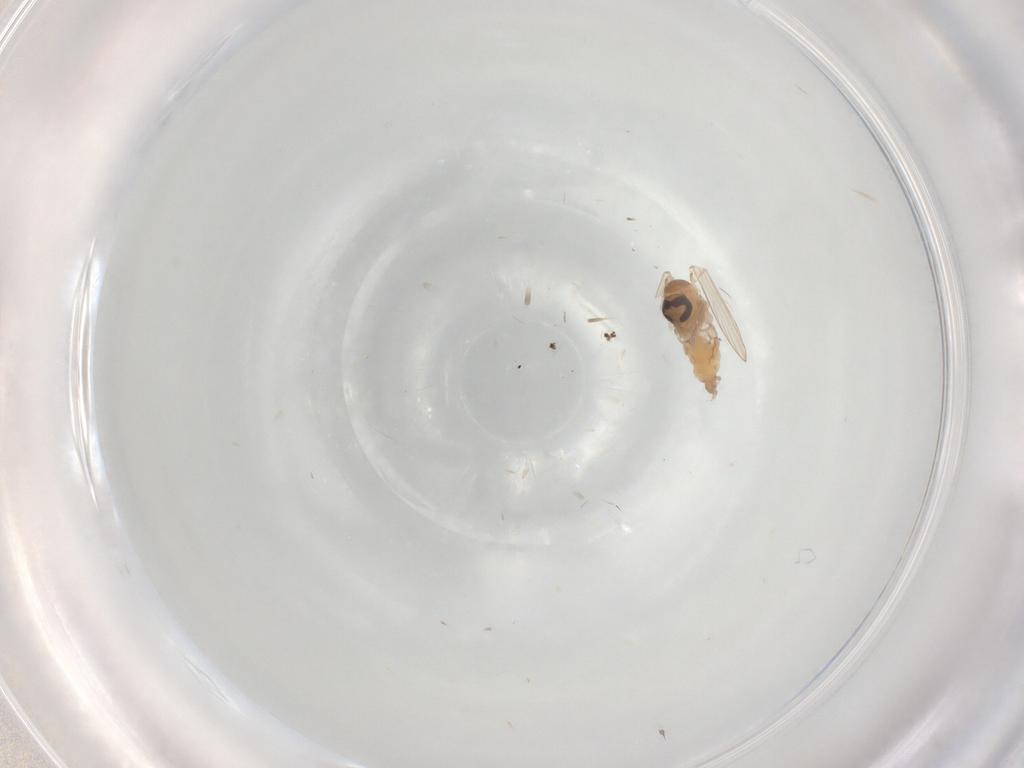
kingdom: Animalia
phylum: Arthropoda
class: Insecta
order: Diptera
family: Psychodidae
